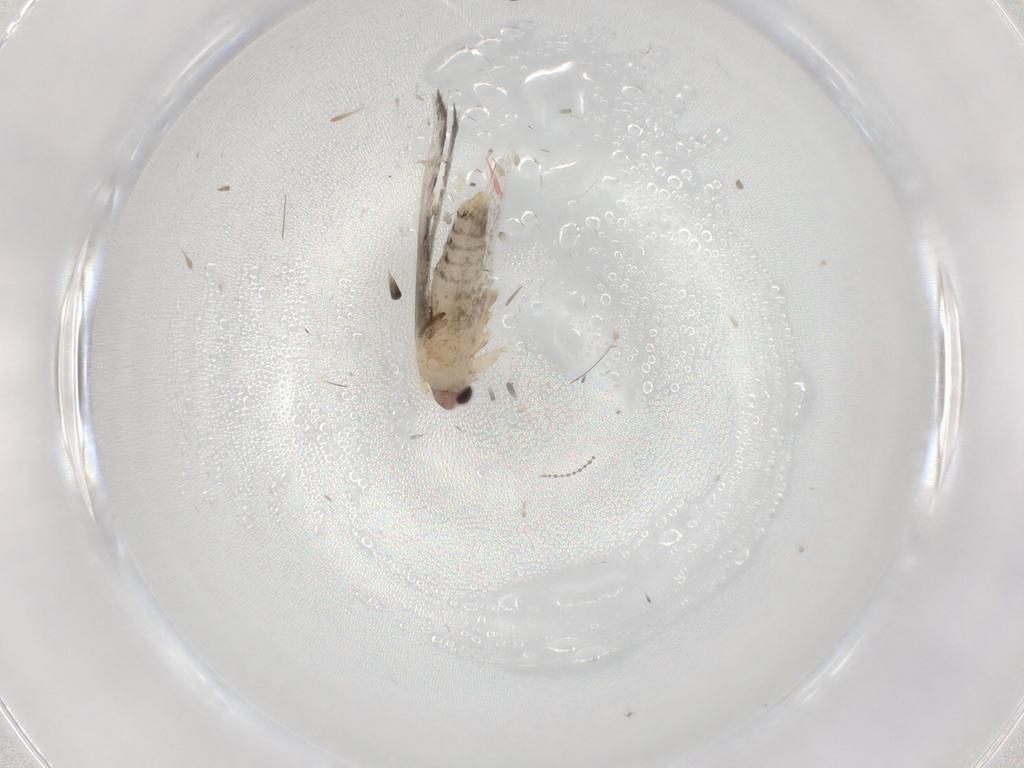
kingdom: Animalia
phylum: Arthropoda
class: Insecta
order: Lepidoptera
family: Tineidae
